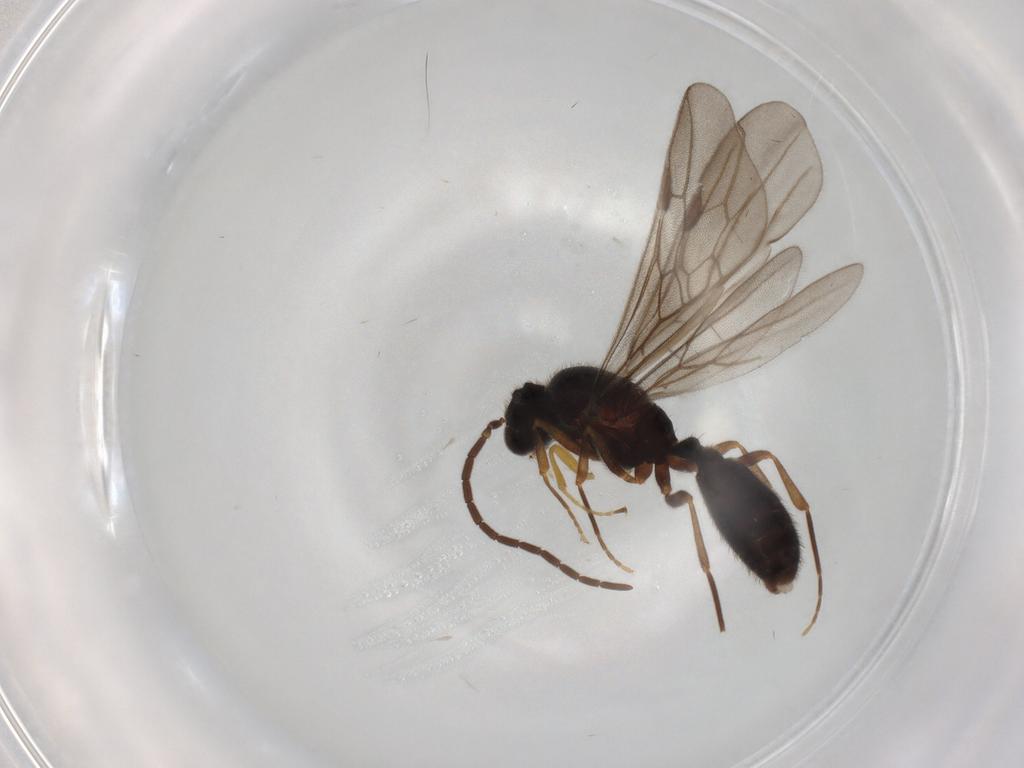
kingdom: Animalia
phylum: Arthropoda
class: Insecta
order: Hymenoptera
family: Formicidae
